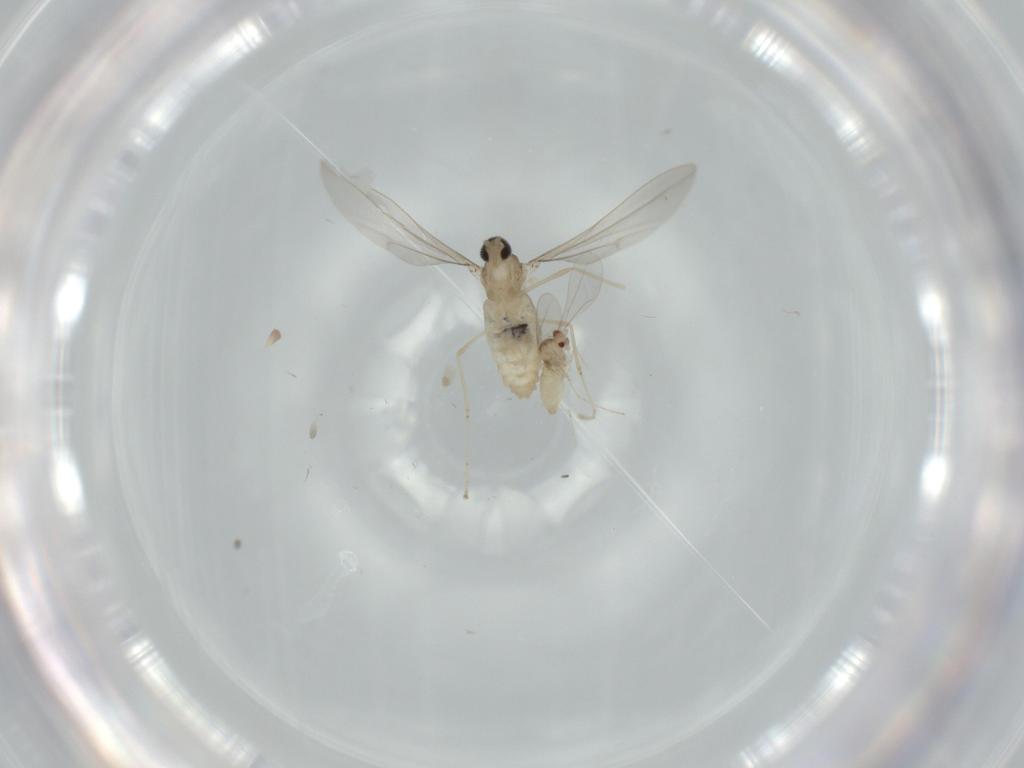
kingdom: Animalia
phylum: Arthropoda
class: Insecta
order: Diptera
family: Cecidomyiidae
